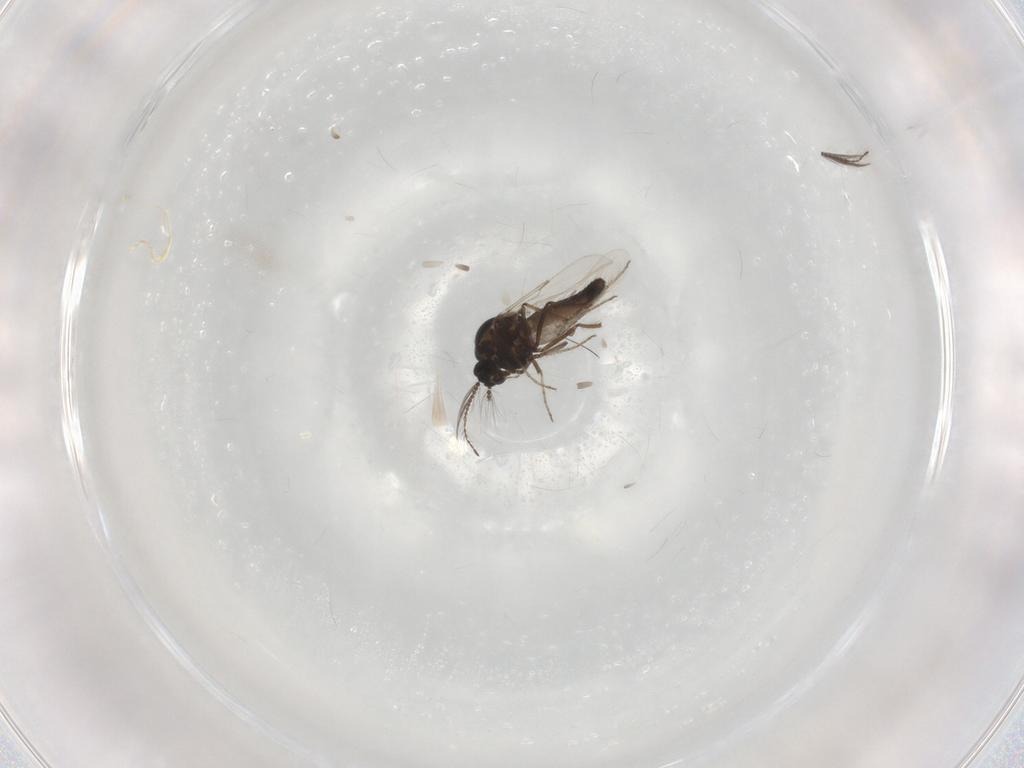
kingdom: Animalia
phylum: Arthropoda
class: Insecta
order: Diptera
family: Ceratopogonidae
